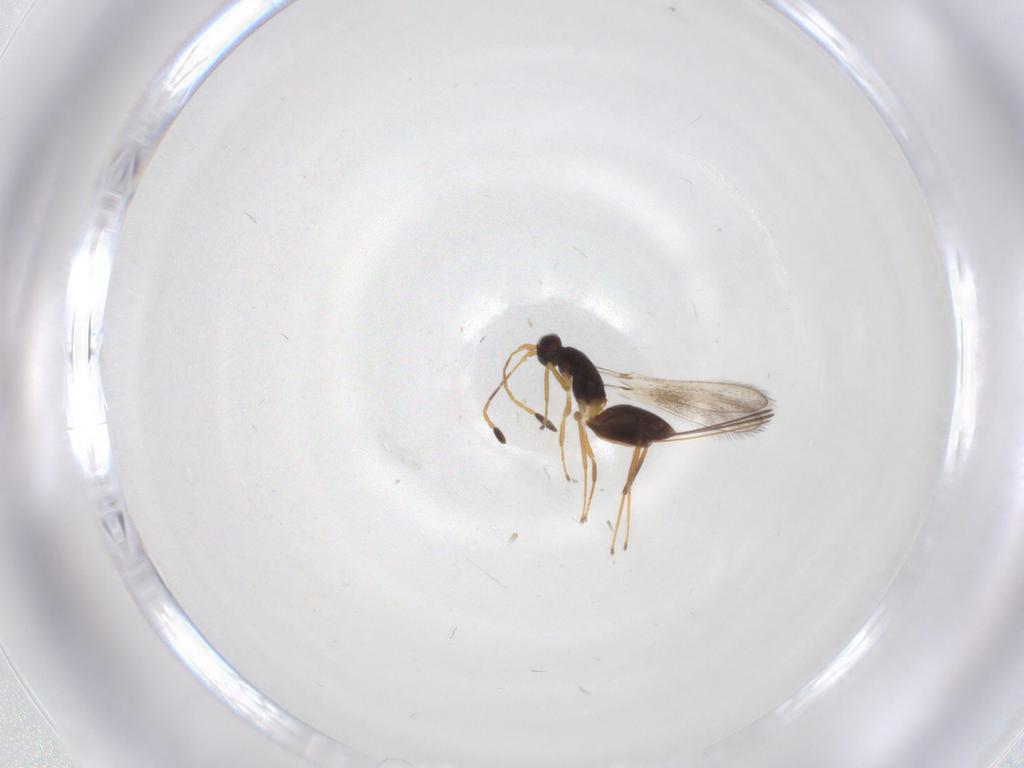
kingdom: Animalia
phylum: Arthropoda
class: Insecta
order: Hymenoptera
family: Mymaridae
